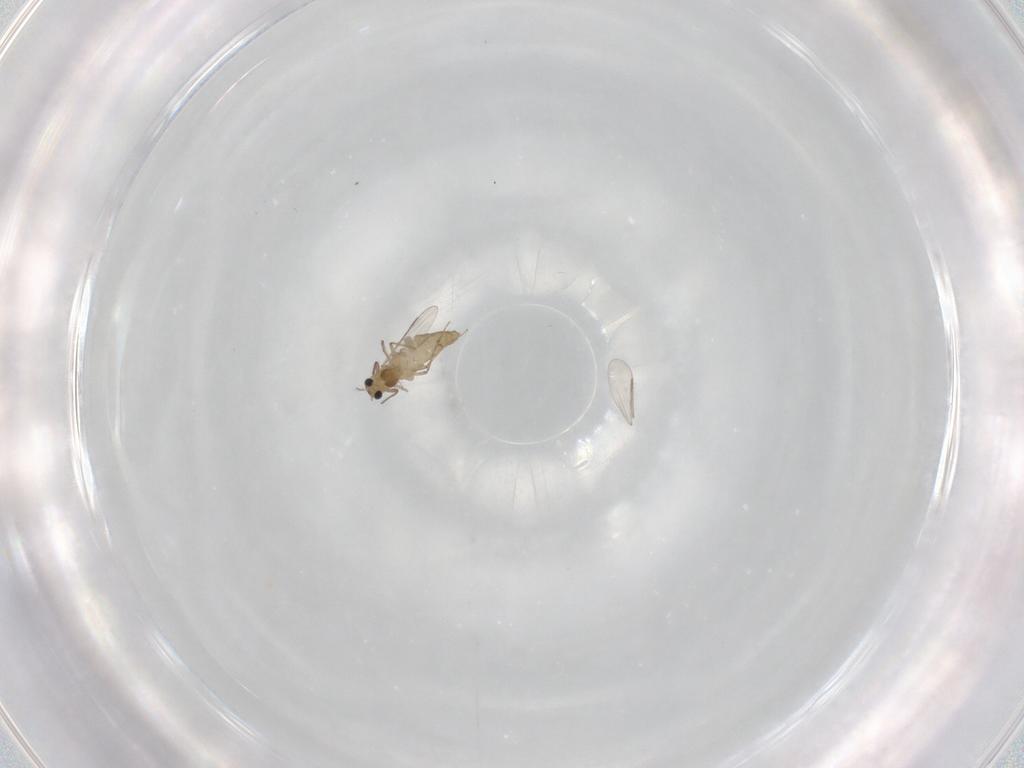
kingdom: Animalia
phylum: Arthropoda
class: Insecta
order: Diptera
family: Chironomidae
